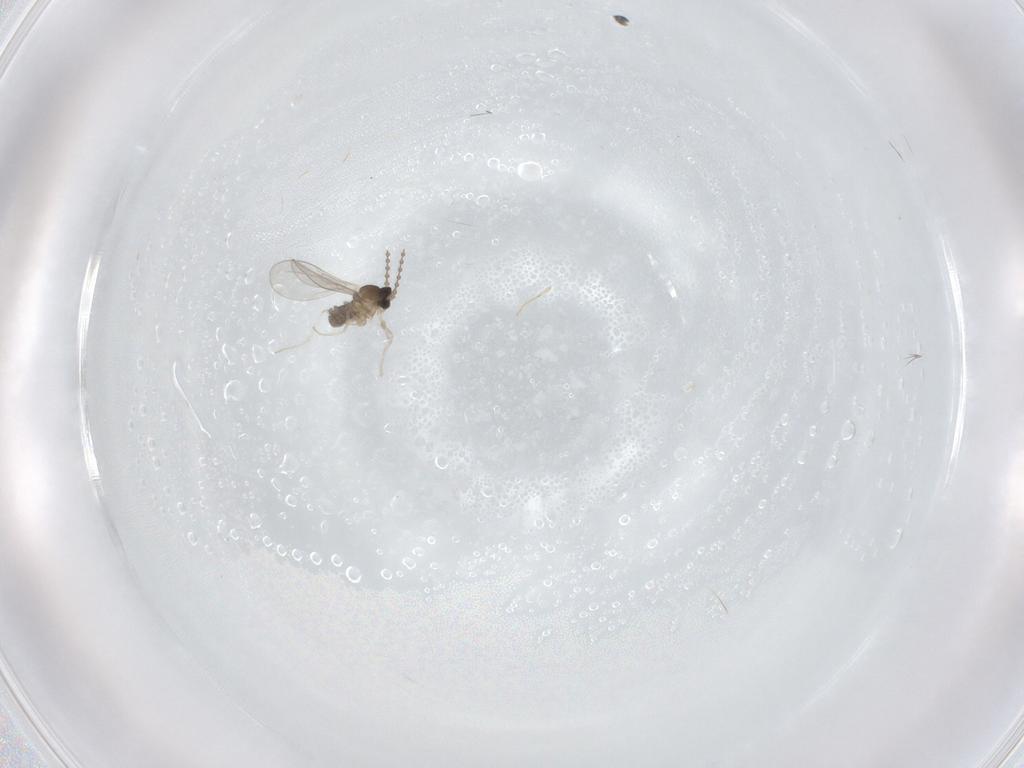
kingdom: Animalia
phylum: Arthropoda
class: Insecta
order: Diptera
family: Cecidomyiidae
